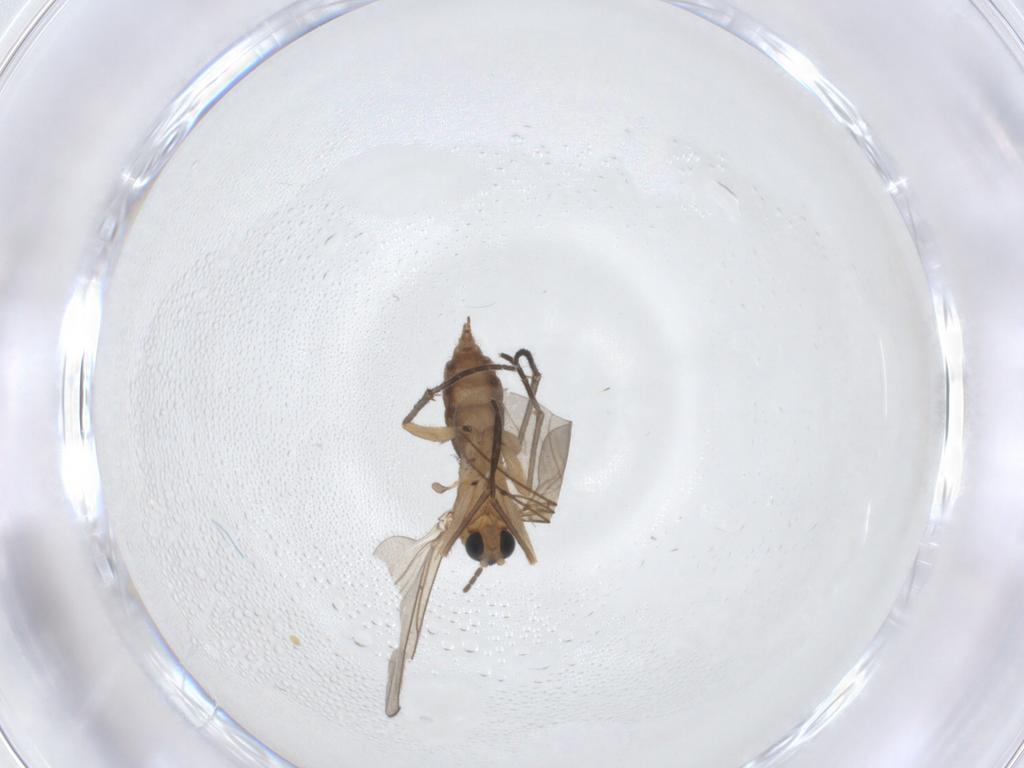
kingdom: Animalia
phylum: Arthropoda
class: Insecta
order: Diptera
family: Sciaridae
